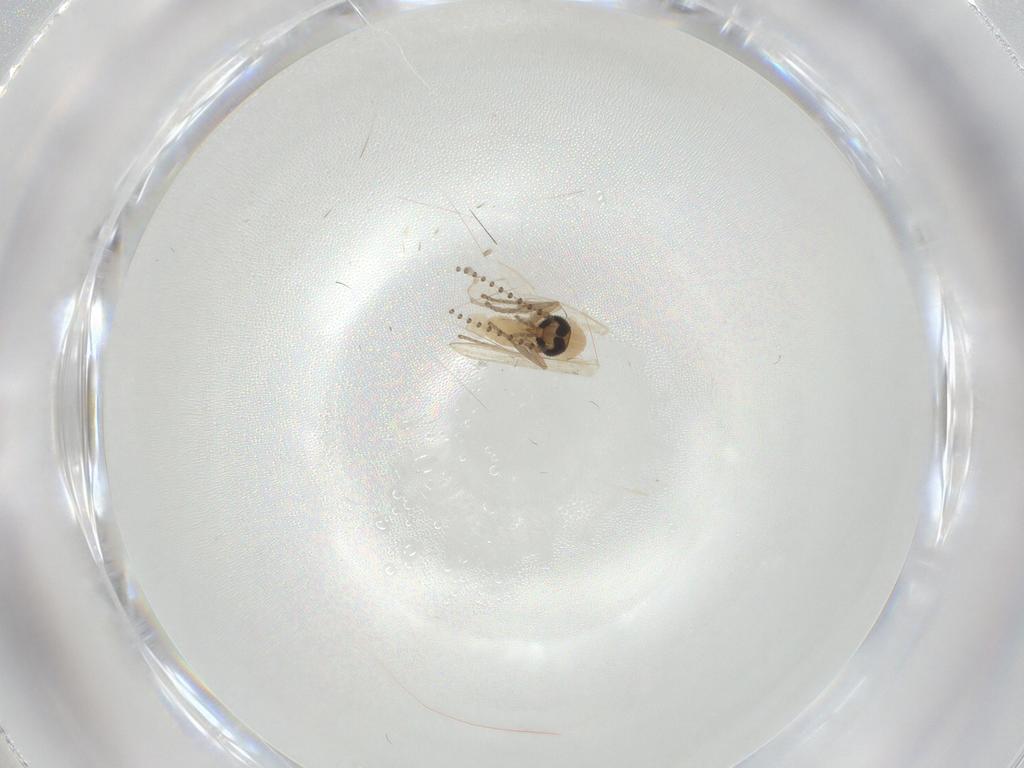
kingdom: Animalia
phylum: Arthropoda
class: Insecta
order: Diptera
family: Psychodidae
